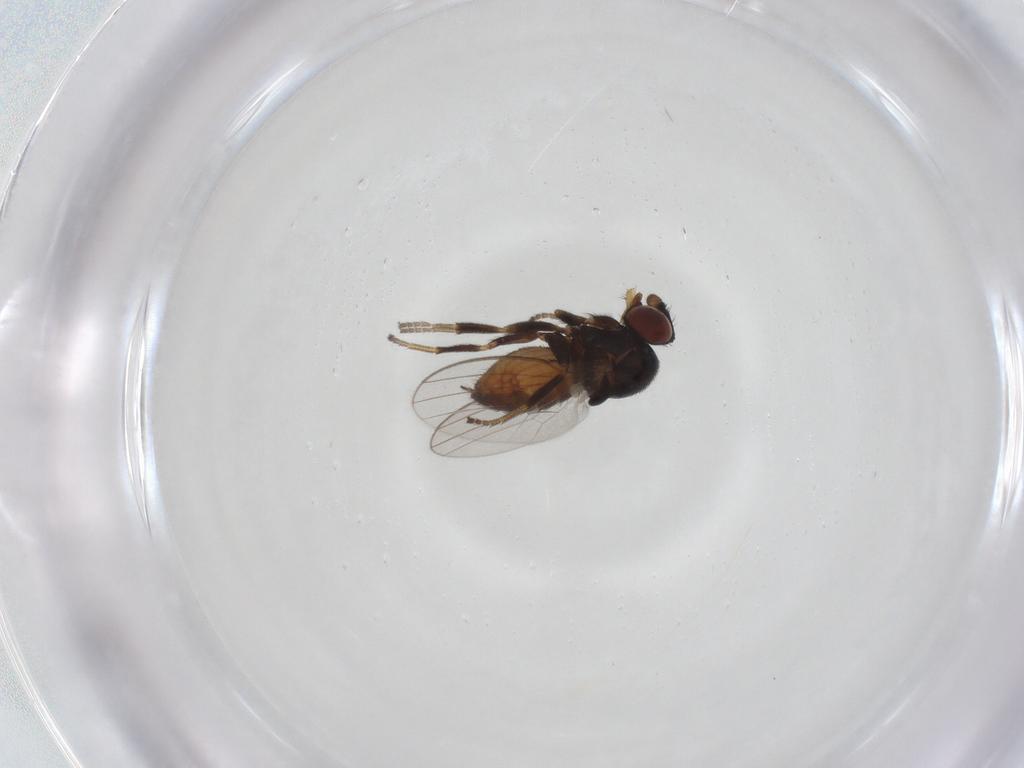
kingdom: Animalia
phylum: Arthropoda
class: Insecta
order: Diptera
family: Milichiidae
